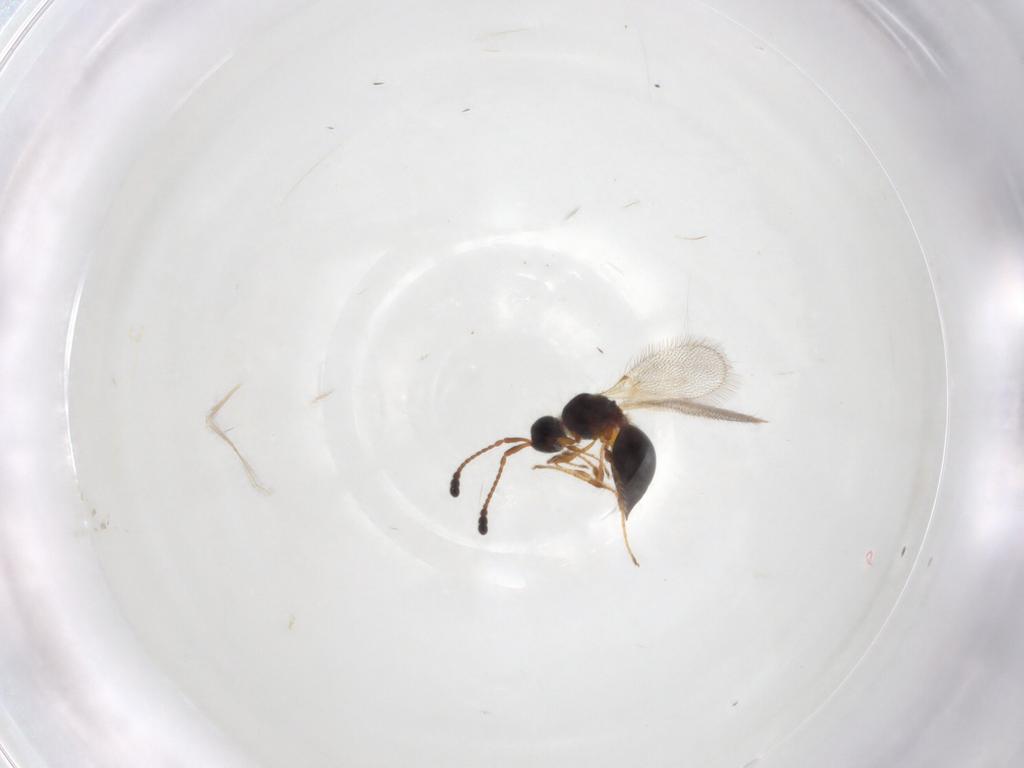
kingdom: Animalia
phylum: Arthropoda
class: Insecta
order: Hymenoptera
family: Diapriidae
